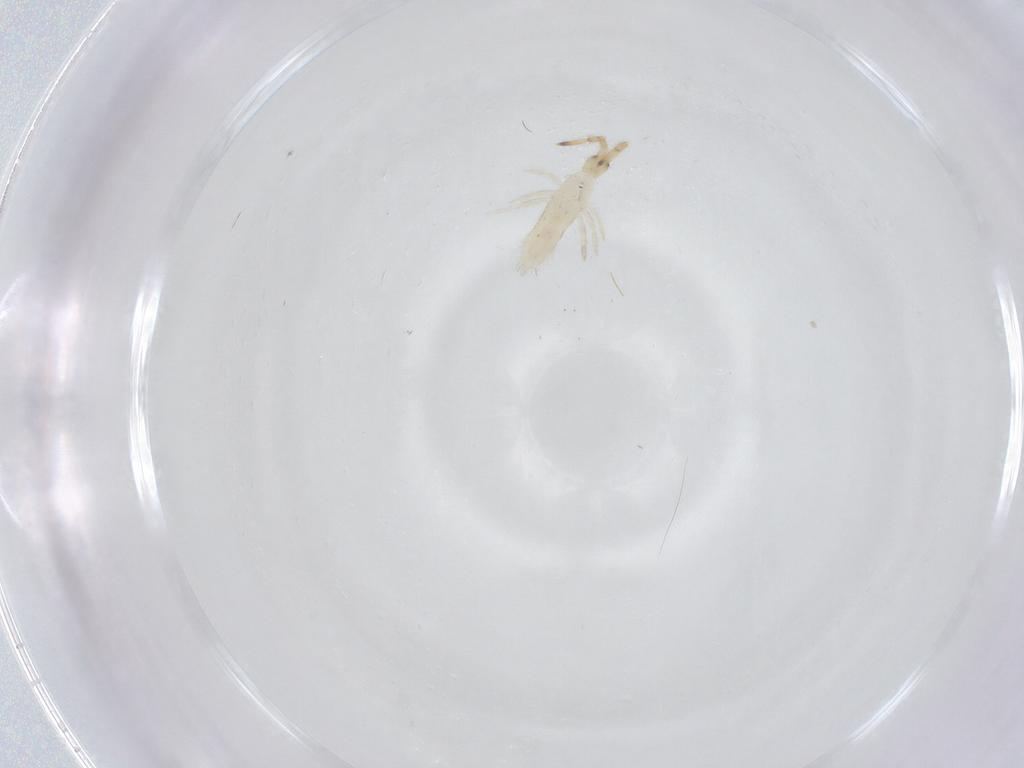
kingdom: Animalia
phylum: Arthropoda
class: Collembola
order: Entomobryomorpha
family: Entomobryidae
